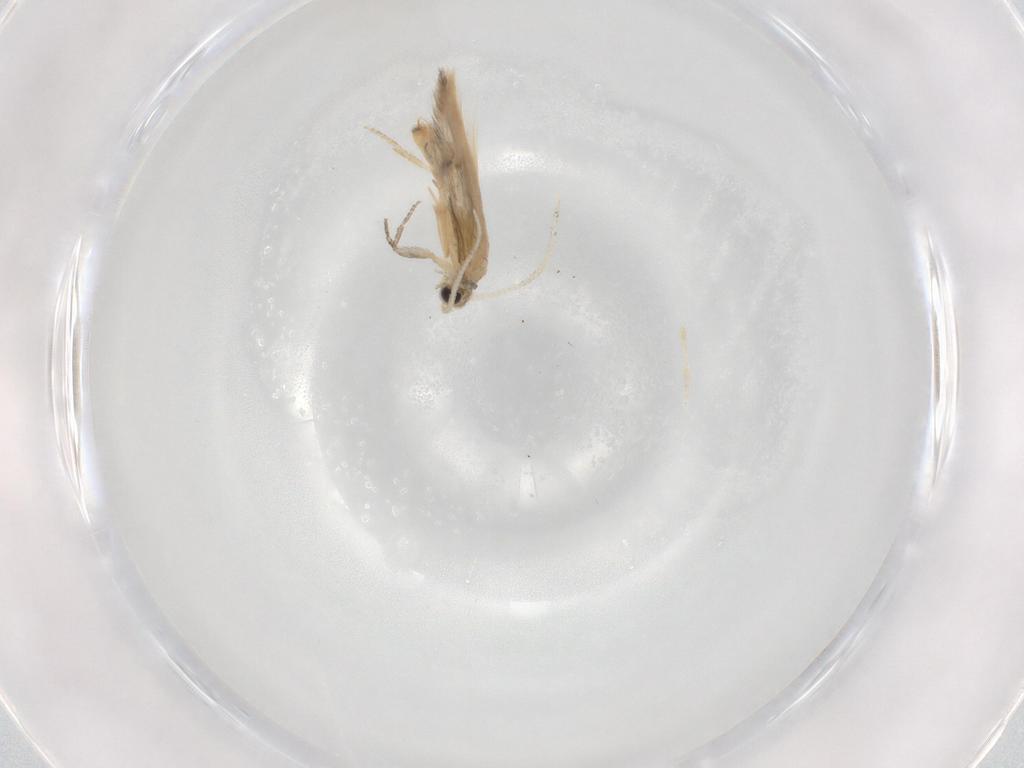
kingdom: Animalia
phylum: Arthropoda
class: Insecta
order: Trichoptera
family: Hydroptilidae
